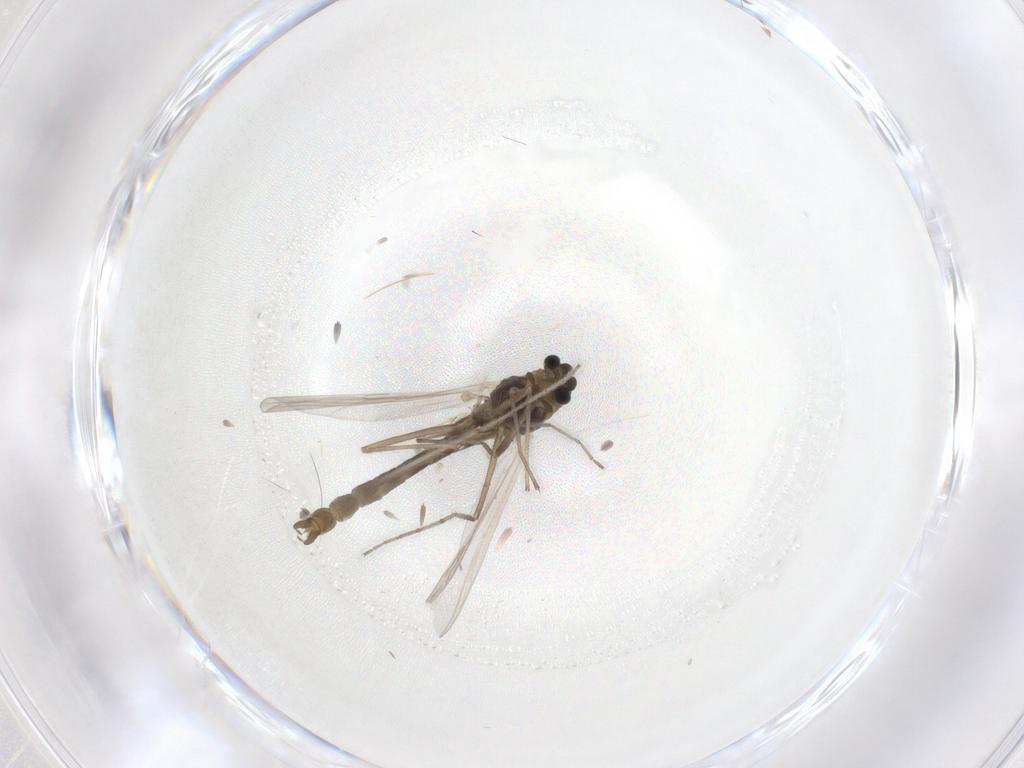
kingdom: Animalia
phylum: Arthropoda
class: Insecta
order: Diptera
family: Chironomidae
